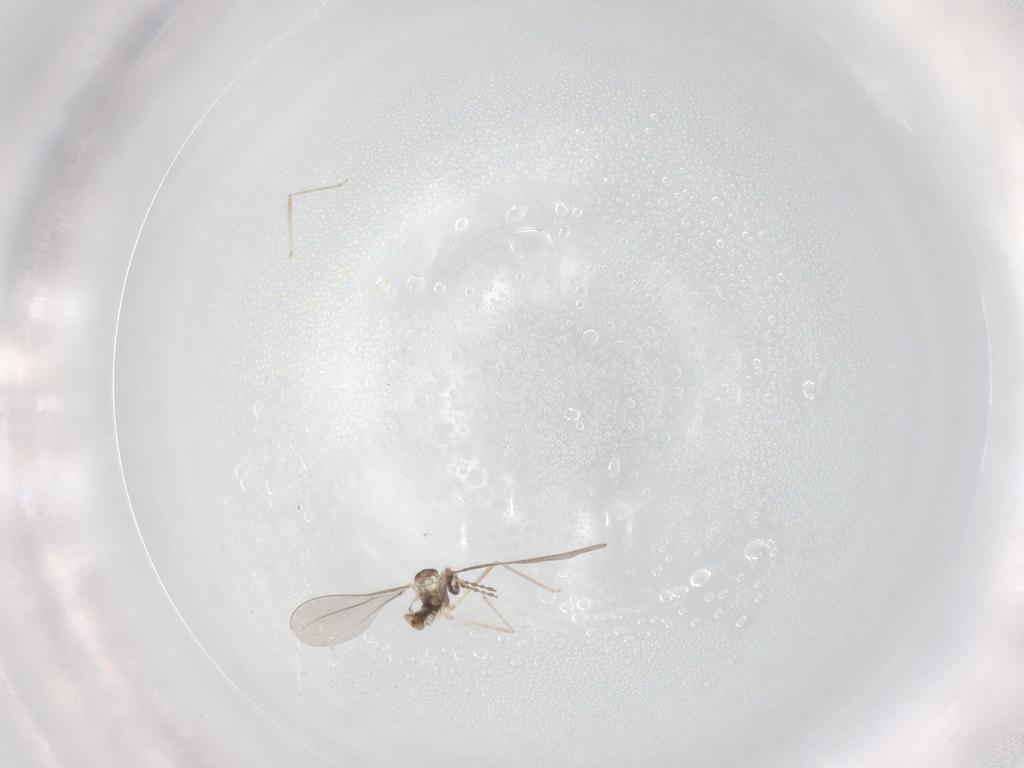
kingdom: Animalia
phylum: Arthropoda
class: Insecta
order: Diptera
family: Cecidomyiidae
